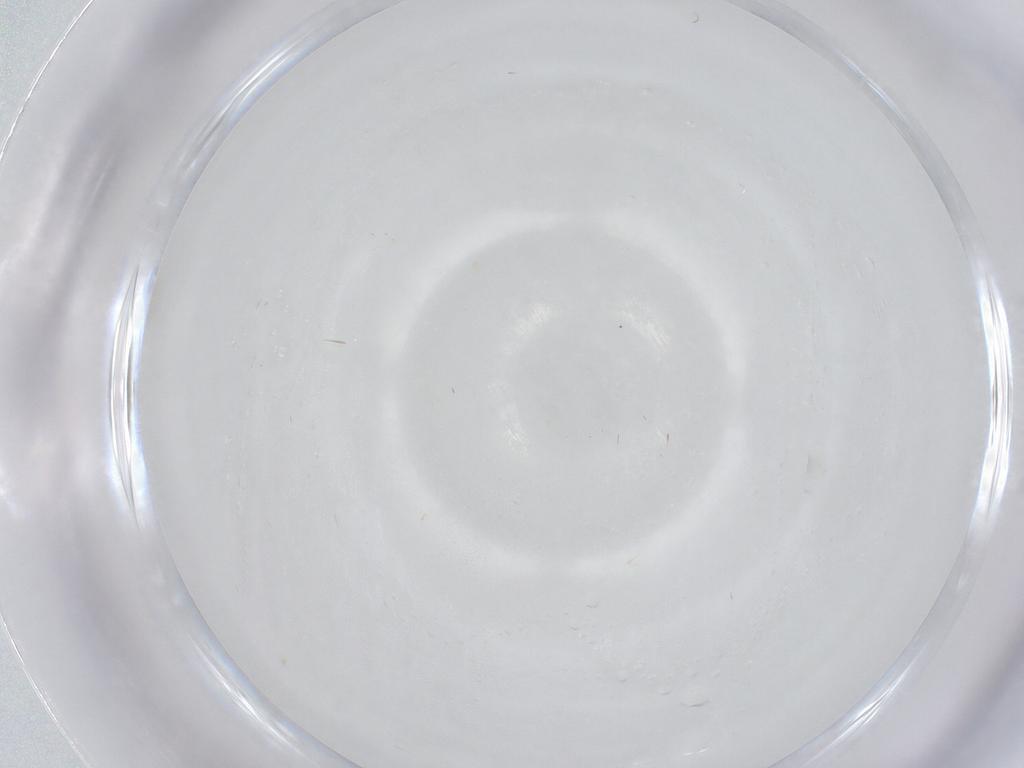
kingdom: Animalia
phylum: Arthropoda
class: Insecta
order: Diptera
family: Cecidomyiidae
